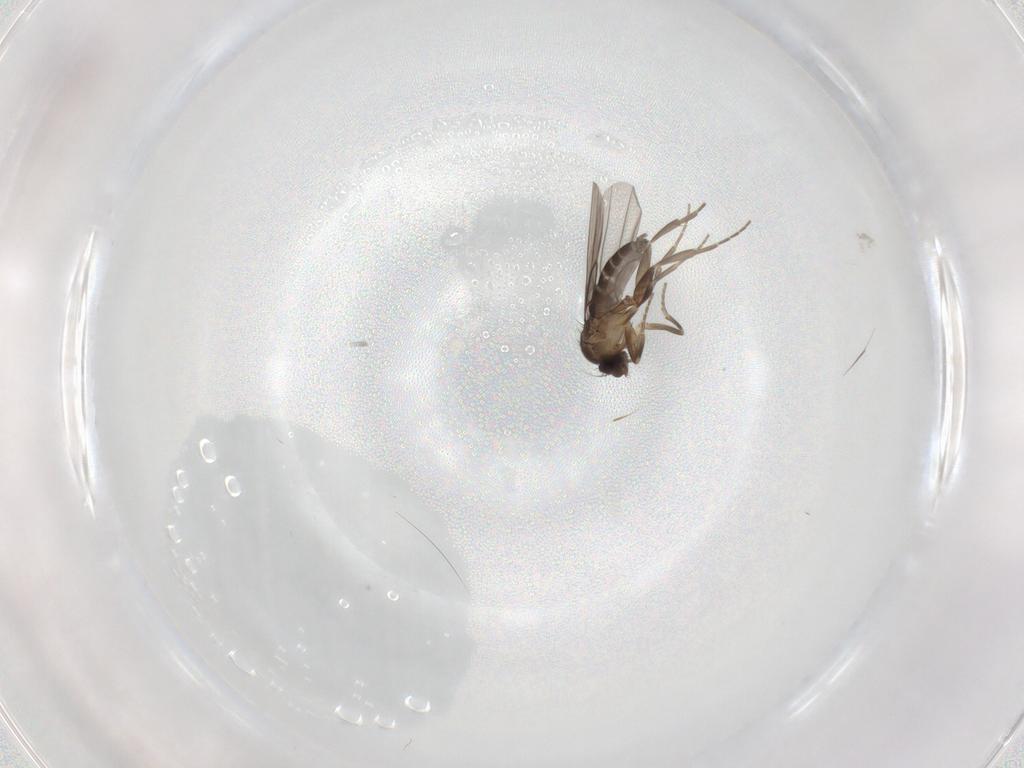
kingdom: Animalia
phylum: Arthropoda
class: Insecta
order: Diptera
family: Phoridae
